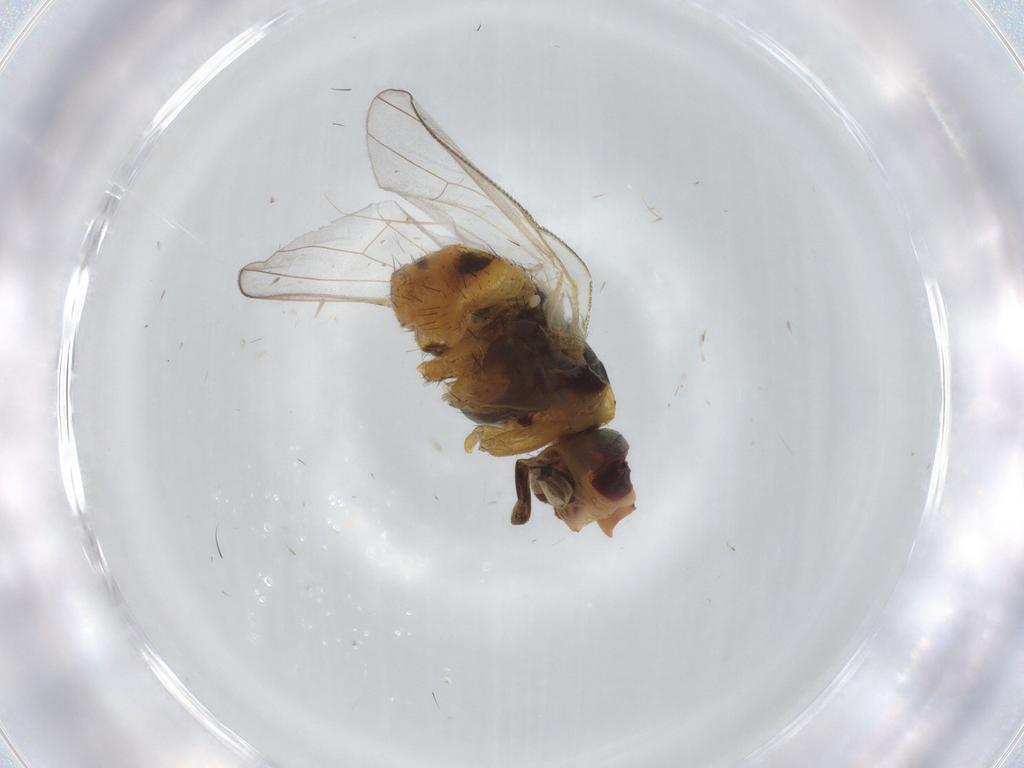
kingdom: Animalia
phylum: Arthropoda
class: Insecta
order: Diptera
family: Muscidae
